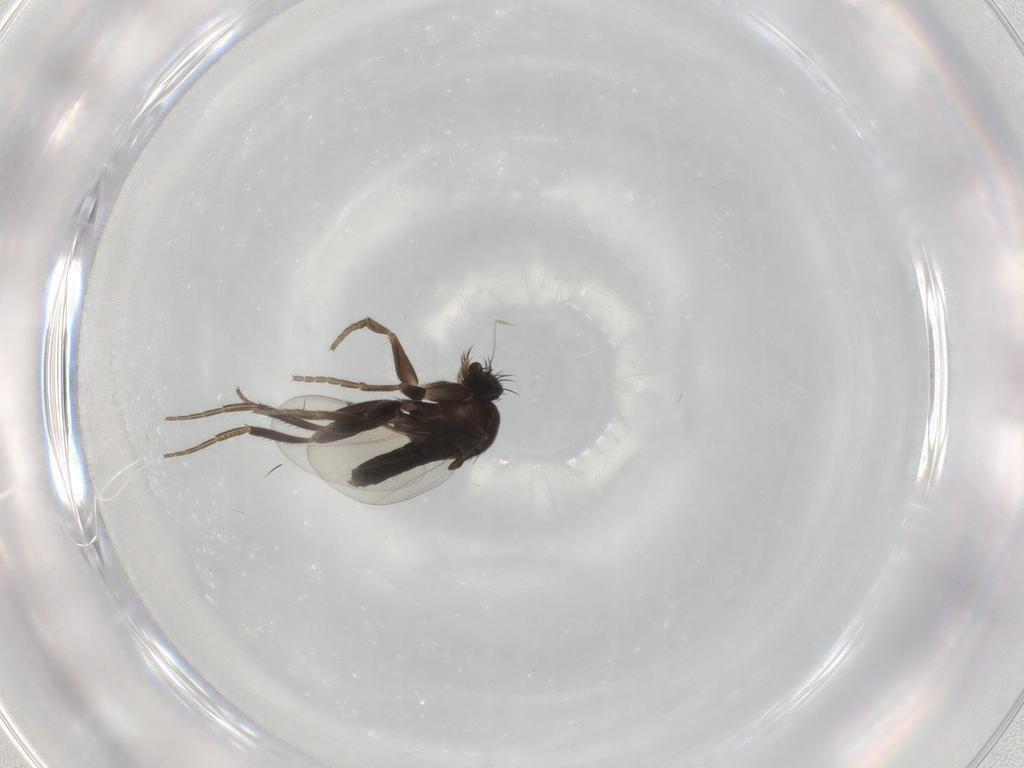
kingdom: Animalia
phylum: Arthropoda
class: Insecta
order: Diptera
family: Phoridae
